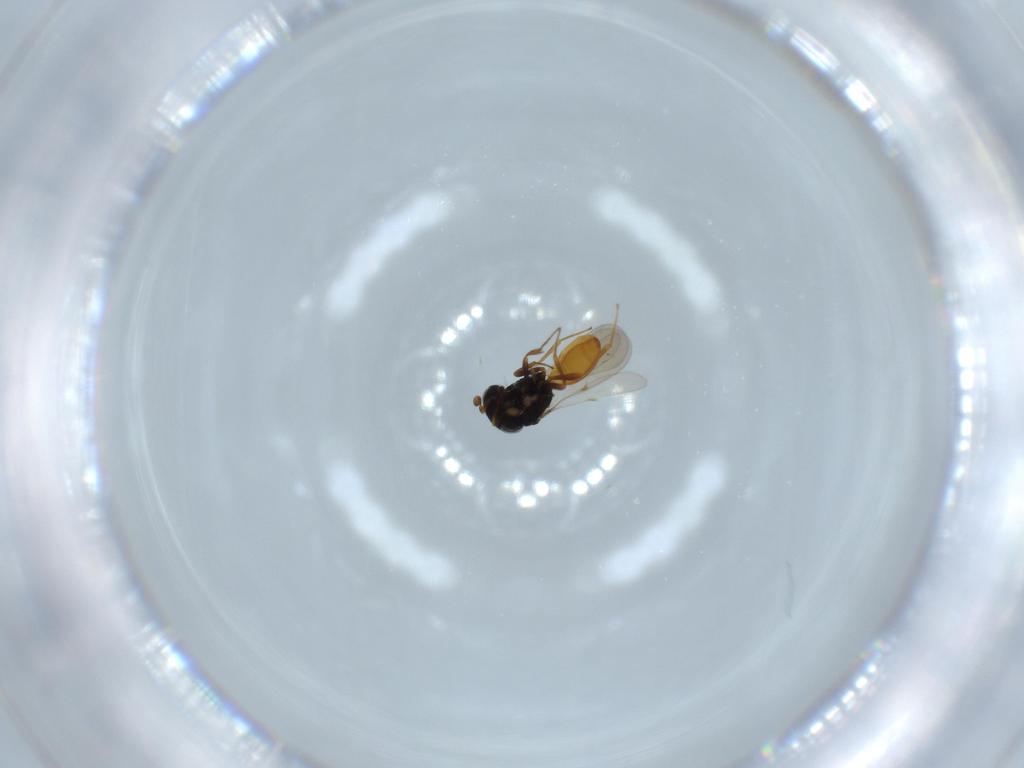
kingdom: Animalia
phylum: Arthropoda
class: Insecta
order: Hymenoptera
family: Scelionidae
